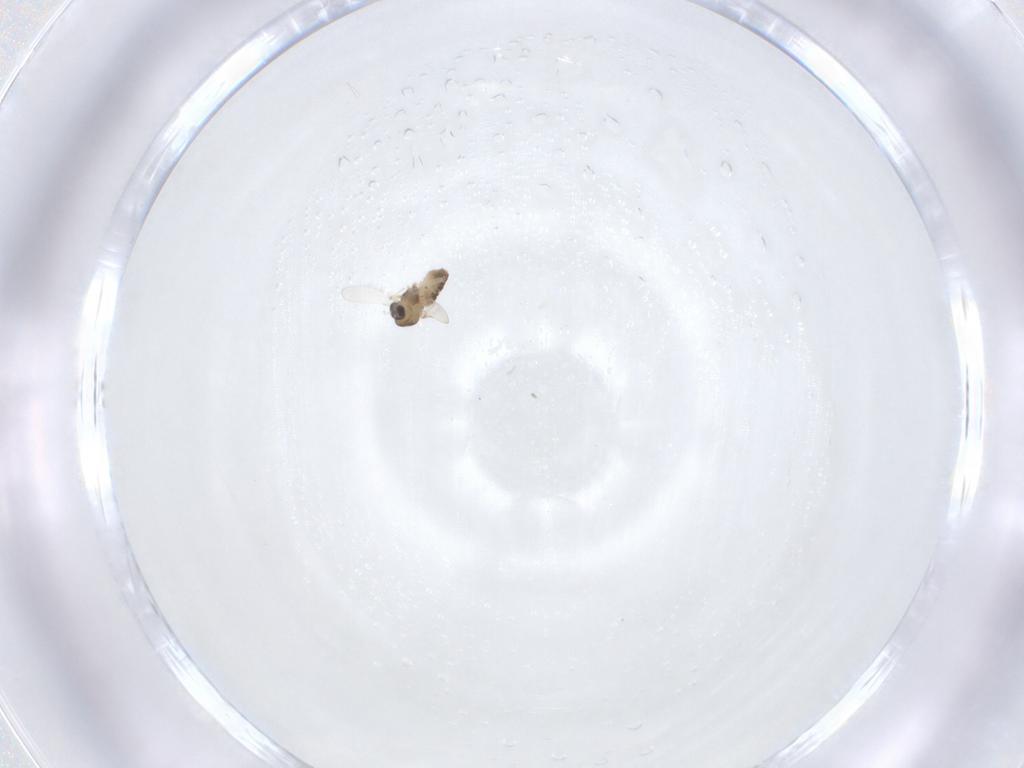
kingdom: Animalia
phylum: Arthropoda
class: Insecta
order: Diptera
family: Chironomidae
